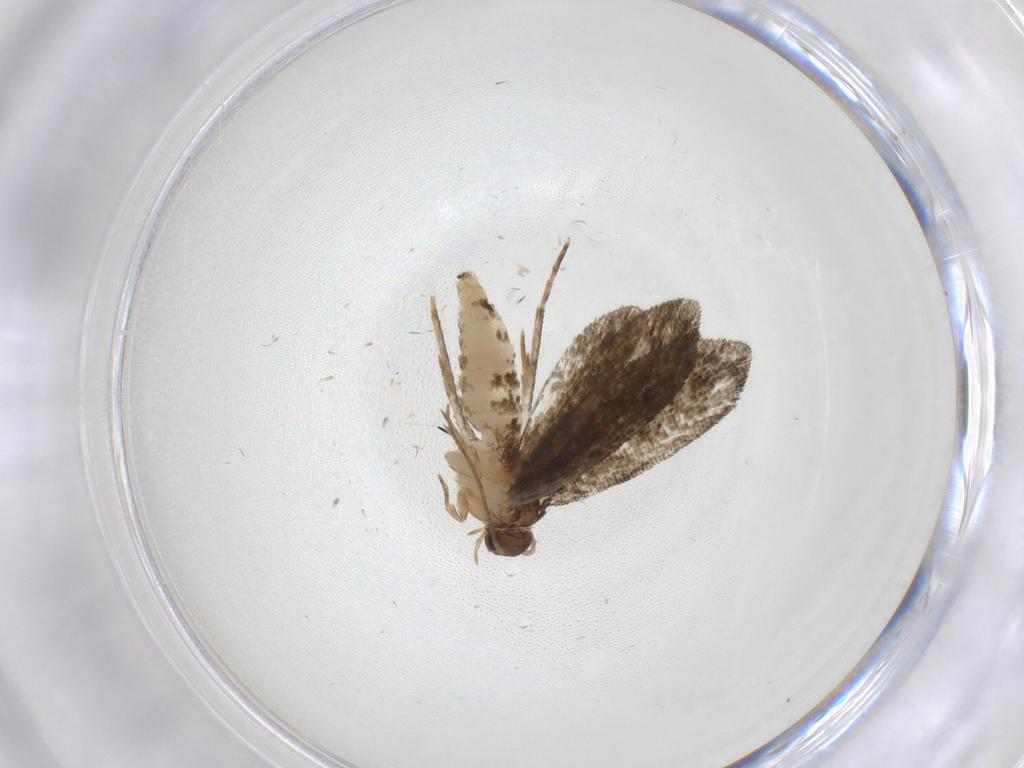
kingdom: Animalia
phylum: Arthropoda
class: Insecta
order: Lepidoptera
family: Crambidae
